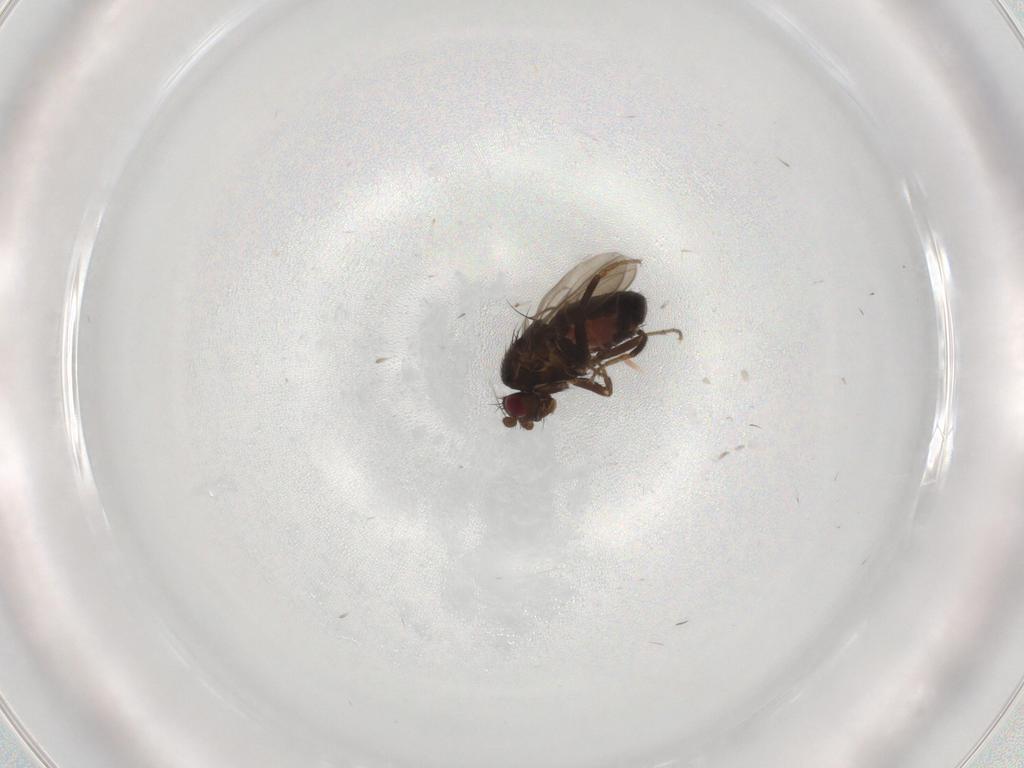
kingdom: Animalia
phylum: Arthropoda
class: Insecta
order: Diptera
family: Sphaeroceridae
